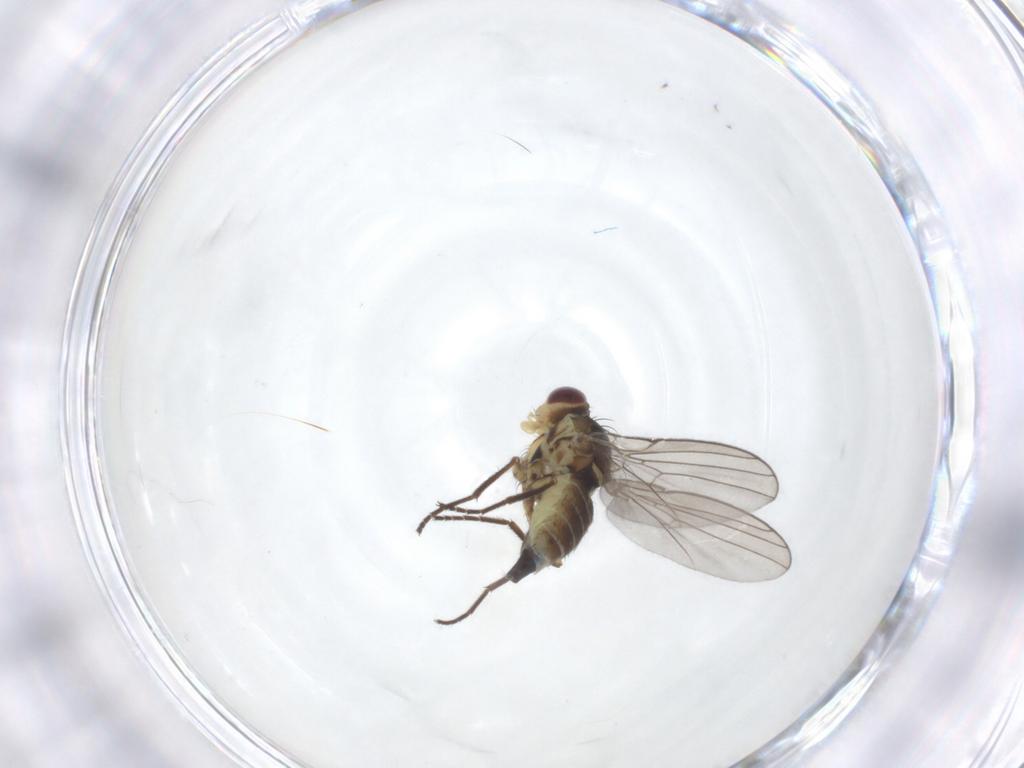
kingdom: Animalia
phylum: Arthropoda
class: Insecta
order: Diptera
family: Agromyzidae
